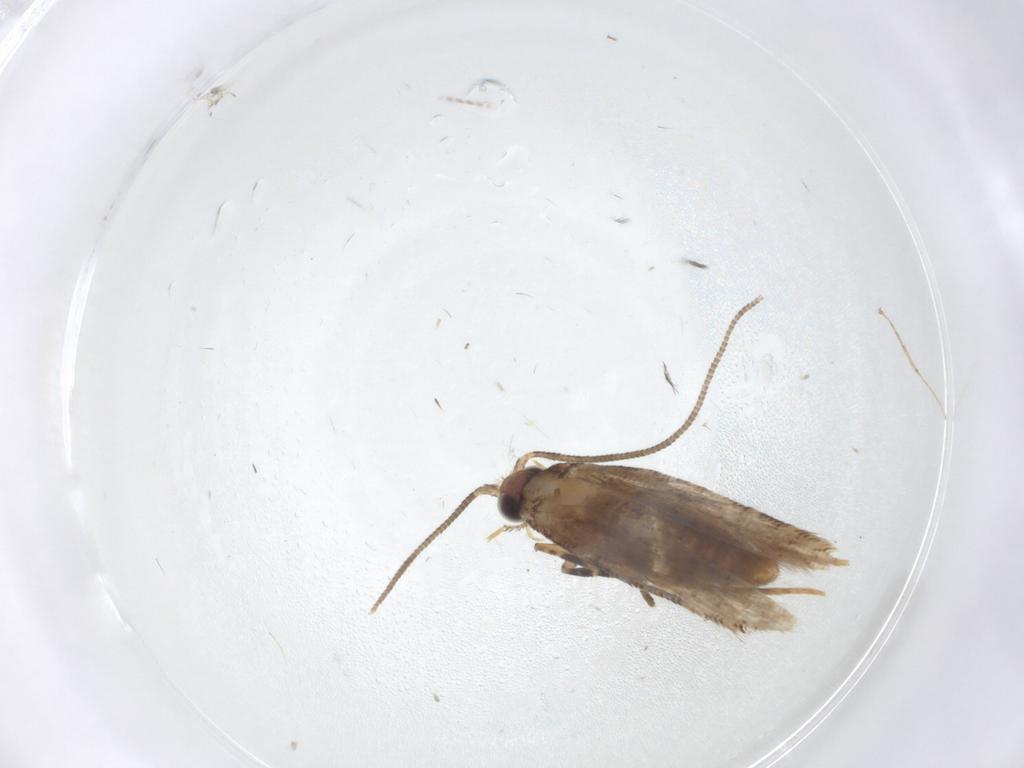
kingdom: Animalia
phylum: Arthropoda
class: Insecta
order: Lepidoptera
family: Tineidae
